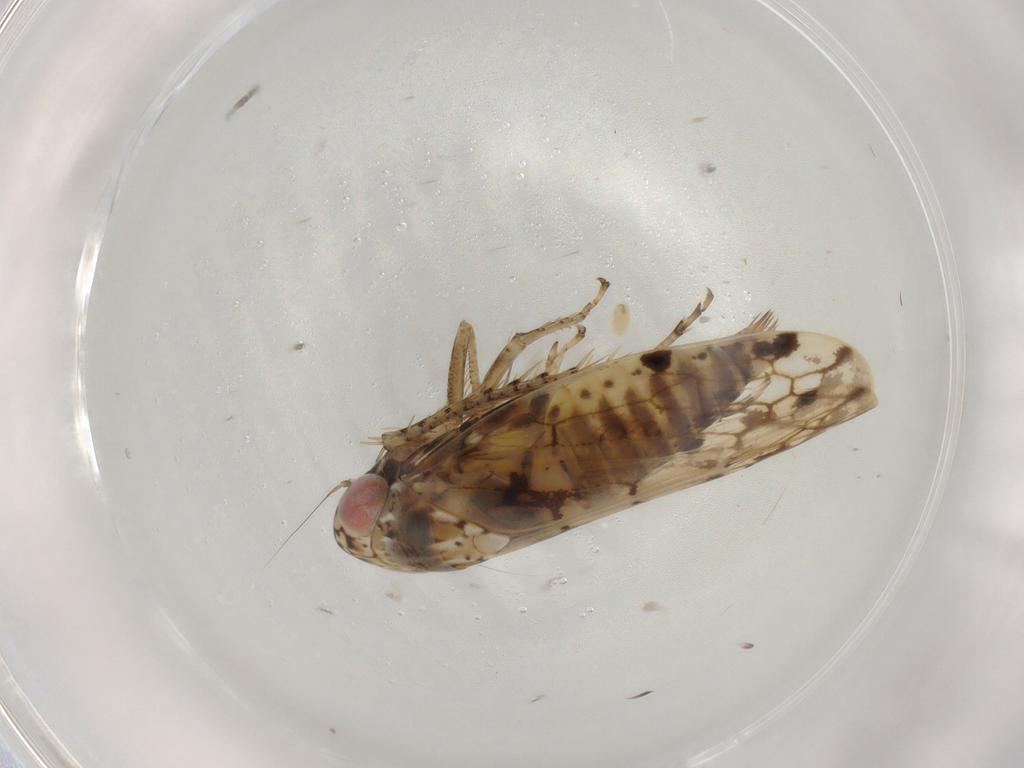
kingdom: Animalia
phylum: Arthropoda
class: Insecta
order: Hemiptera
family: Cicadellidae
